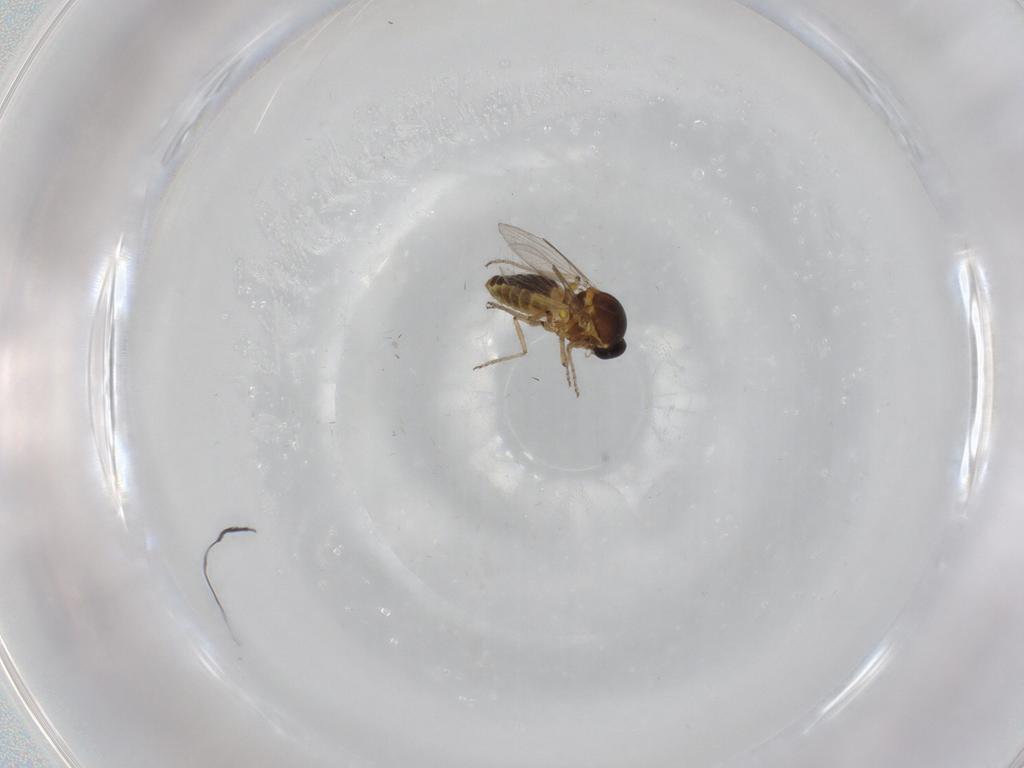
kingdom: Animalia
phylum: Arthropoda
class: Insecta
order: Diptera
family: Ceratopogonidae
